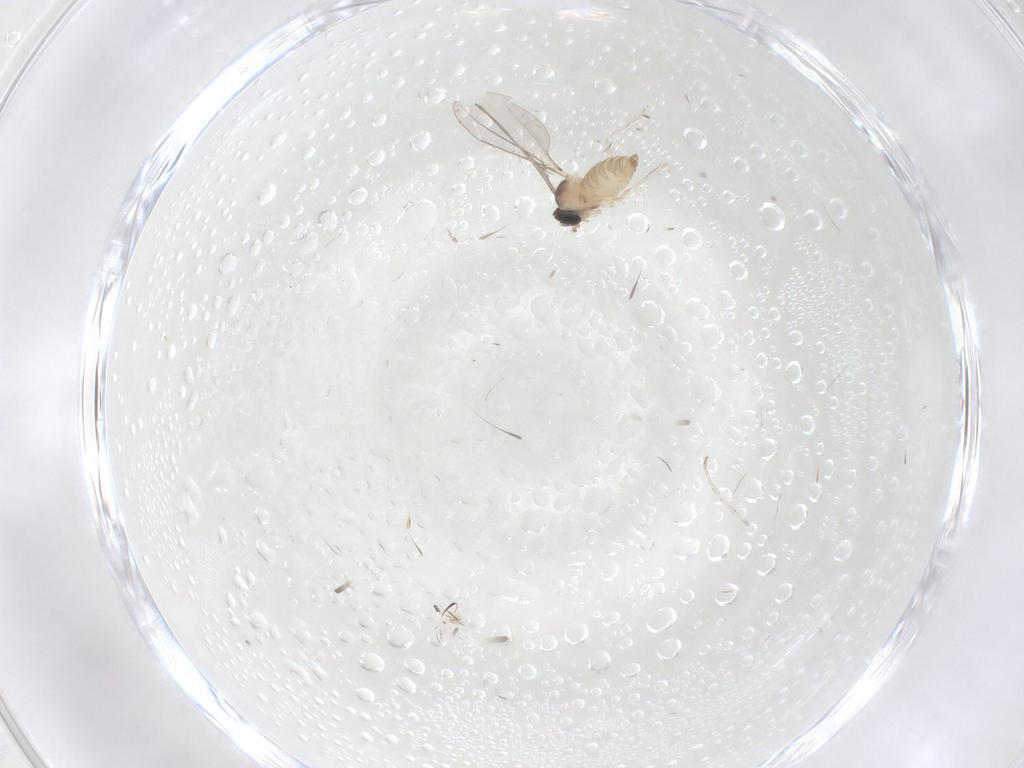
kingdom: Animalia
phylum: Arthropoda
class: Insecta
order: Diptera
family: Cecidomyiidae
